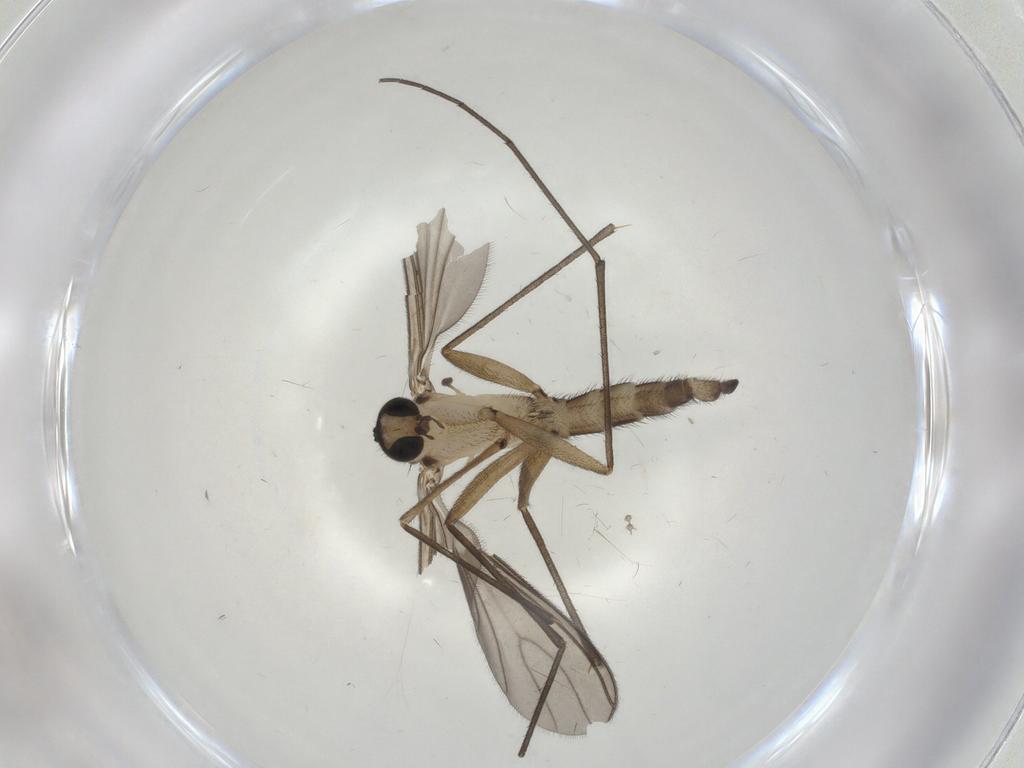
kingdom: Animalia
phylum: Arthropoda
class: Insecta
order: Diptera
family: Sciaridae
